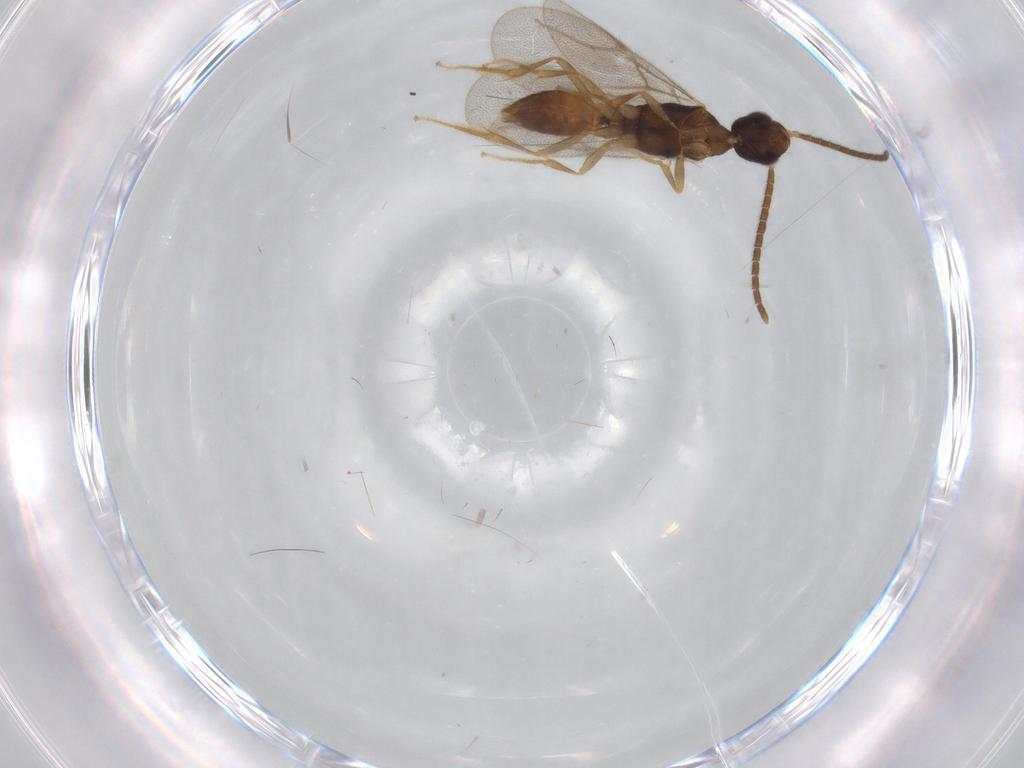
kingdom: Animalia
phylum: Arthropoda
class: Insecta
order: Hymenoptera
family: Bethylidae
